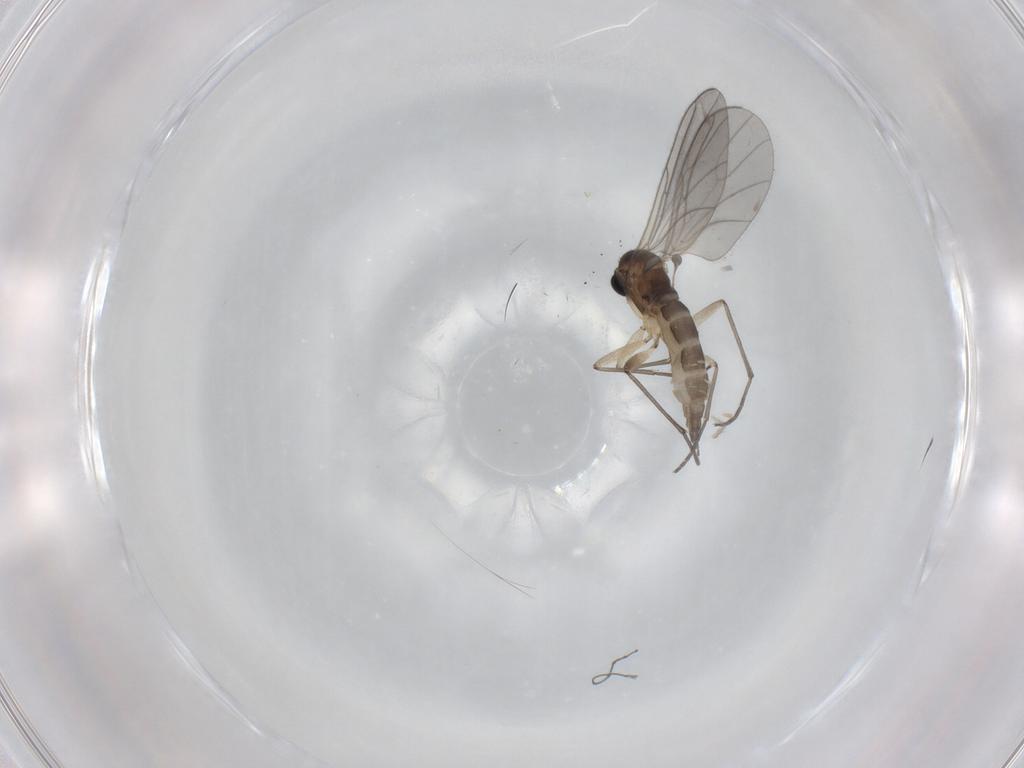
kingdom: Animalia
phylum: Arthropoda
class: Insecta
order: Diptera
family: Sciaridae
